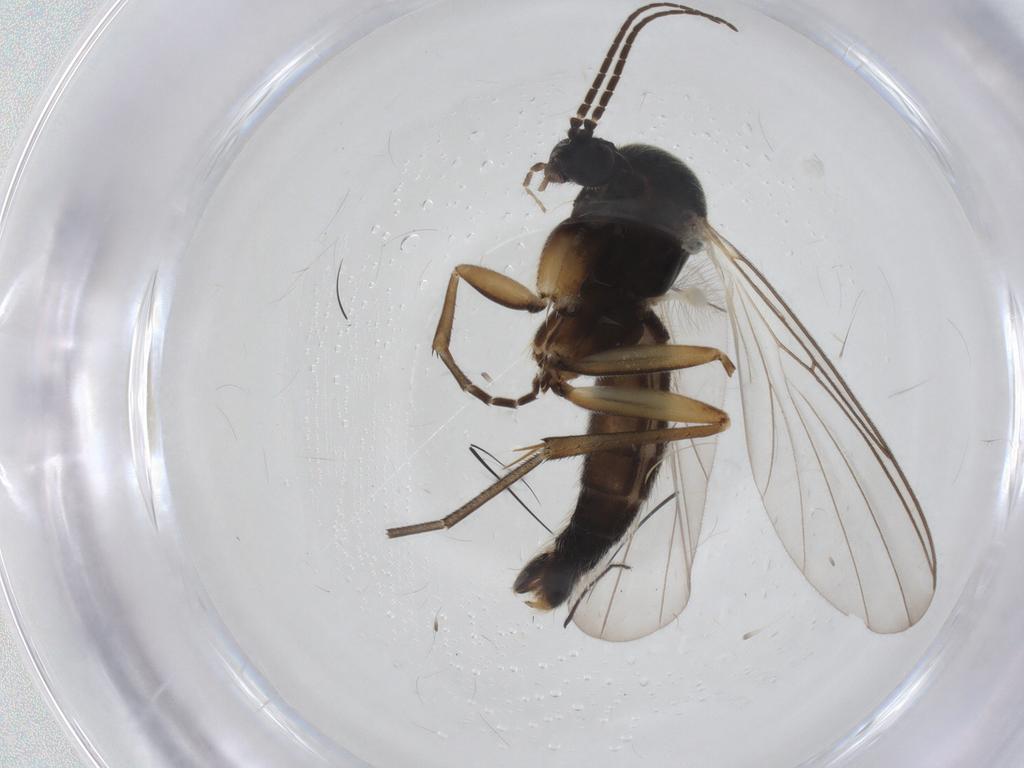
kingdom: Animalia
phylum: Arthropoda
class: Insecta
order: Diptera
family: Mycetophilidae
